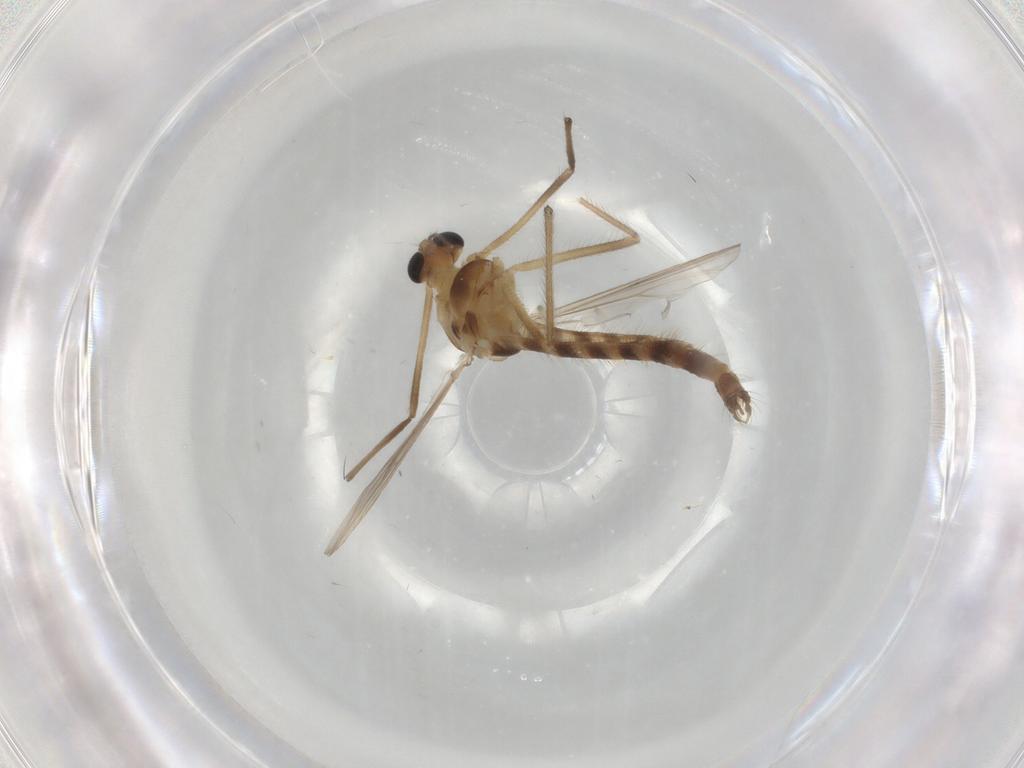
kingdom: Animalia
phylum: Arthropoda
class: Insecta
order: Diptera
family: Chironomidae
